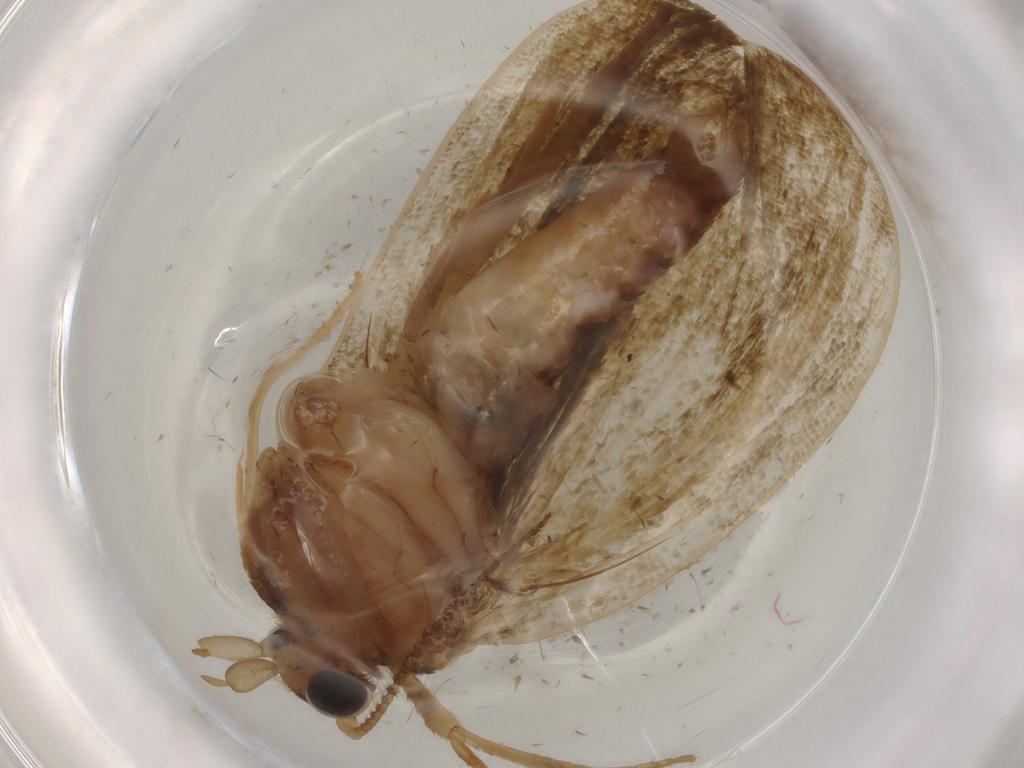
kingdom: Animalia
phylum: Arthropoda
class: Insecta
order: Lepidoptera
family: Geometridae
